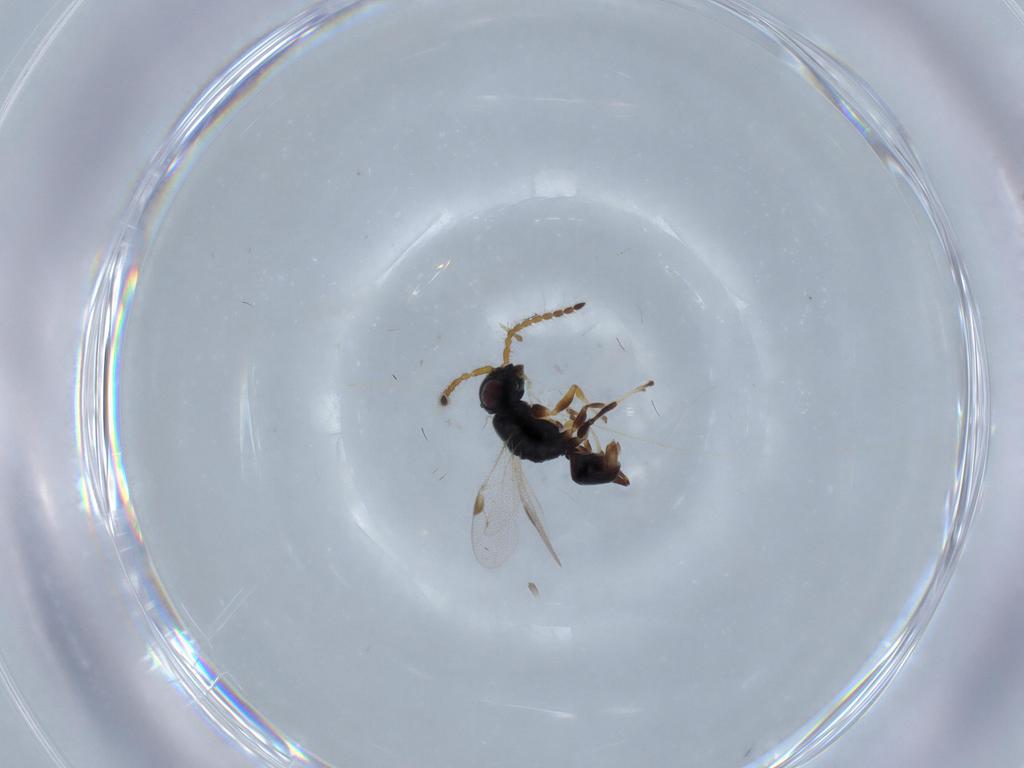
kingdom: Animalia
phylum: Arthropoda
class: Insecta
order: Hymenoptera
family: Dryinidae
